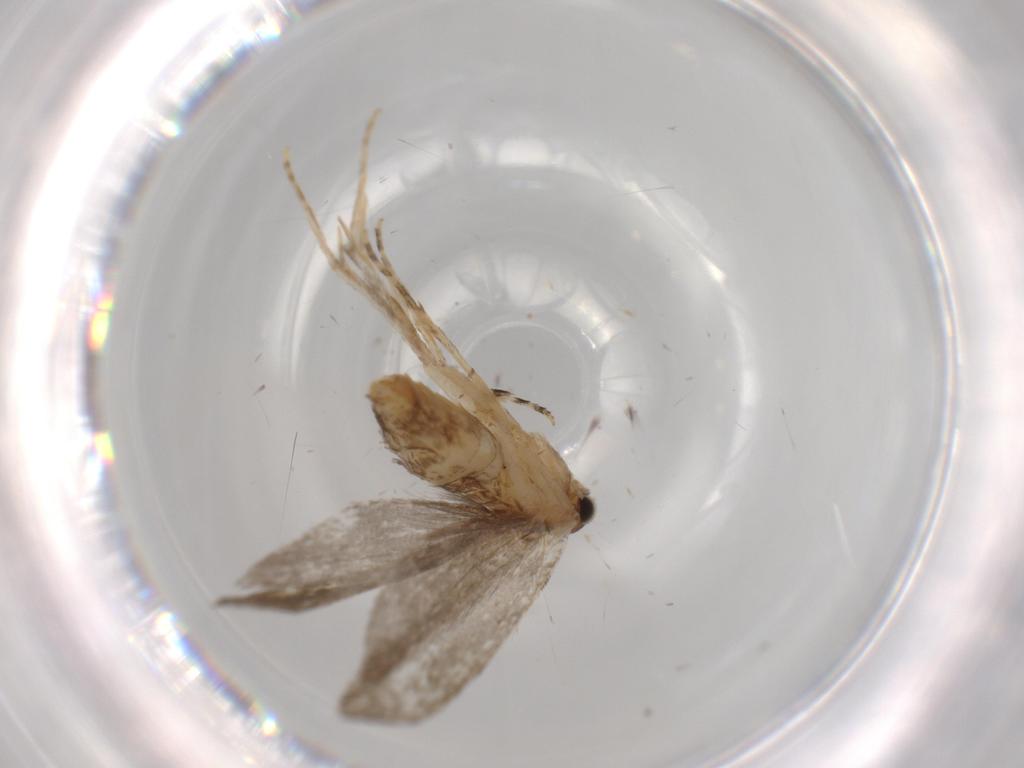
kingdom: Animalia
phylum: Arthropoda
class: Insecta
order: Lepidoptera
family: Tineidae
